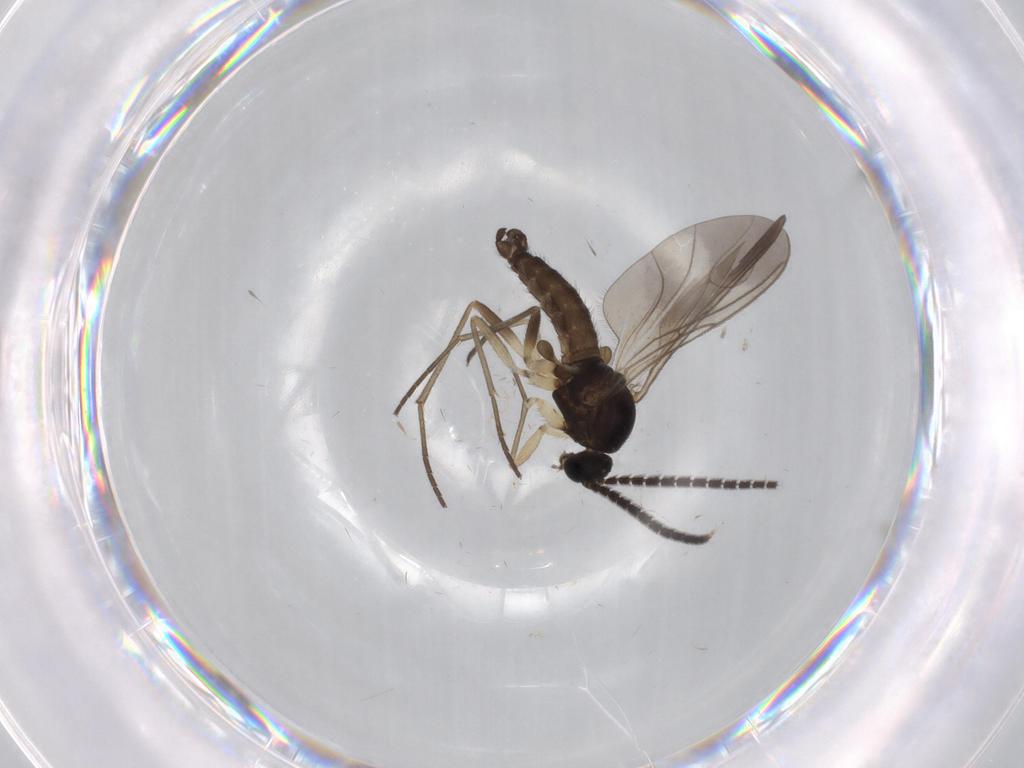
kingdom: Animalia
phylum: Arthropoda
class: Insecta
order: Diptera
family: Sciaridae
